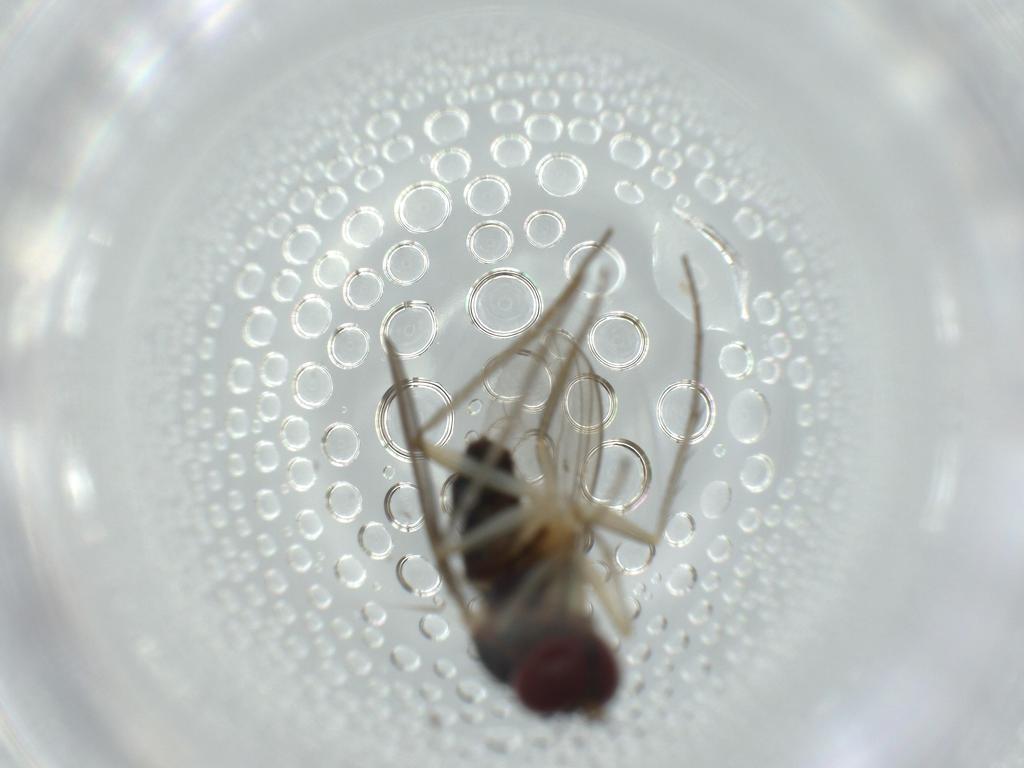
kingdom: Animalia
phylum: Arthropoda
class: Insecta
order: Diptera
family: Dolichopodidae
